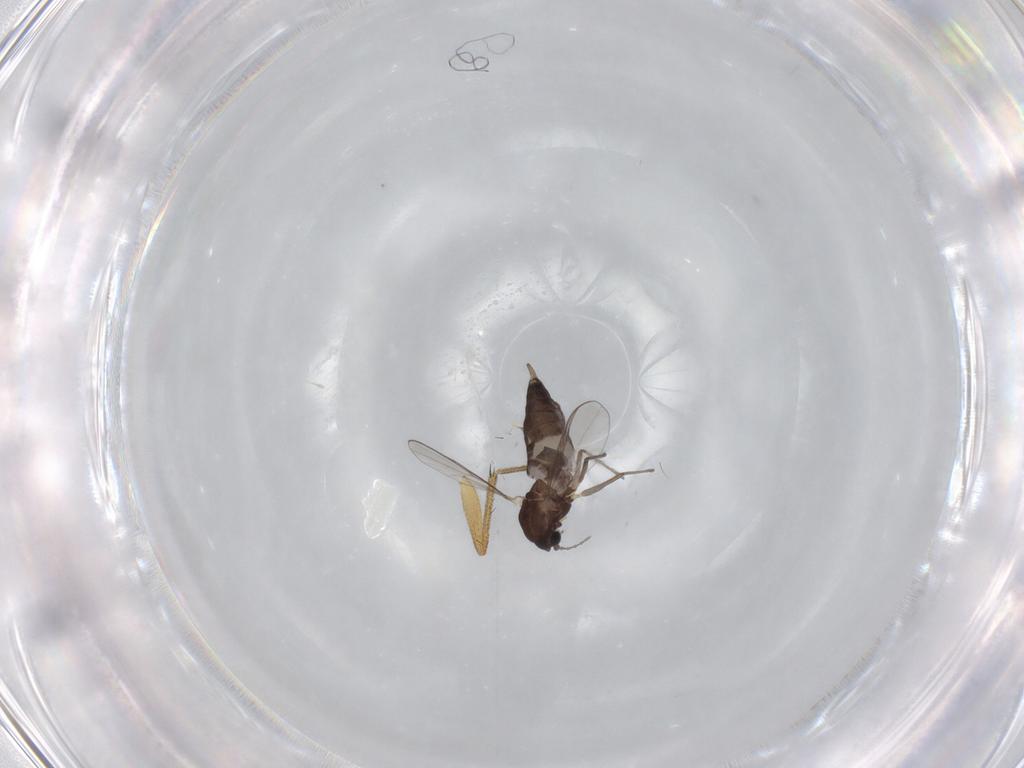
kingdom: Animalia
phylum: Arthropoda
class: Insecta
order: Diptera
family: Chironomidae
